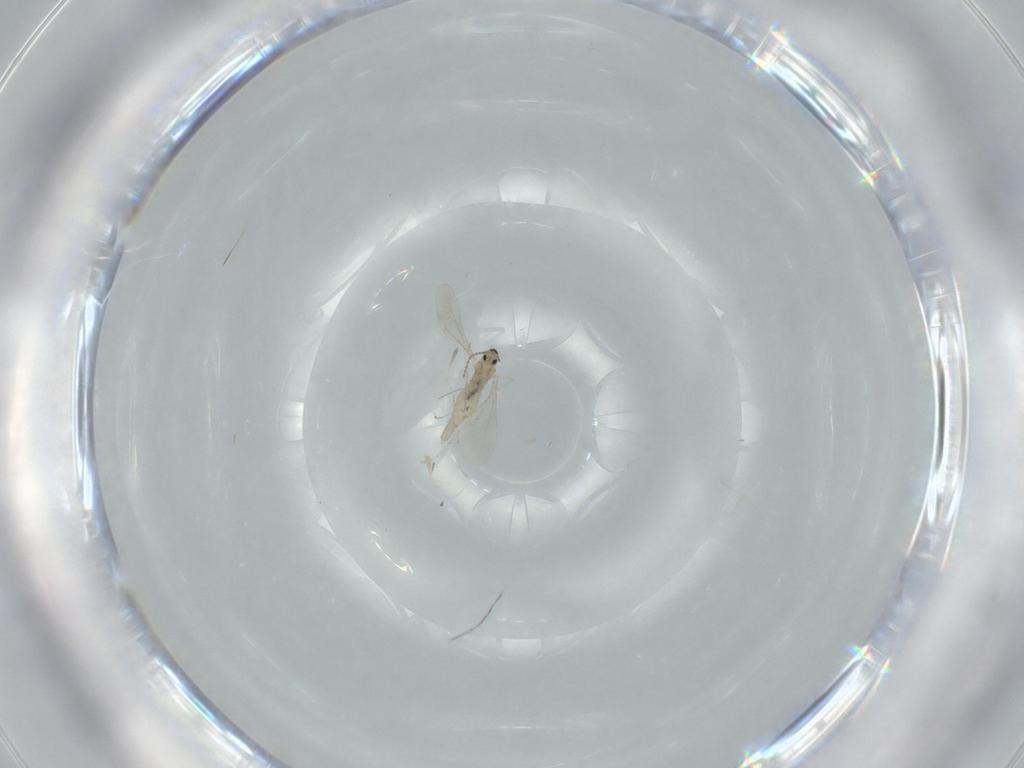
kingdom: Animalia
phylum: Arthropoda
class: Insecta
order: Diptera
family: Cecidomyiidae
